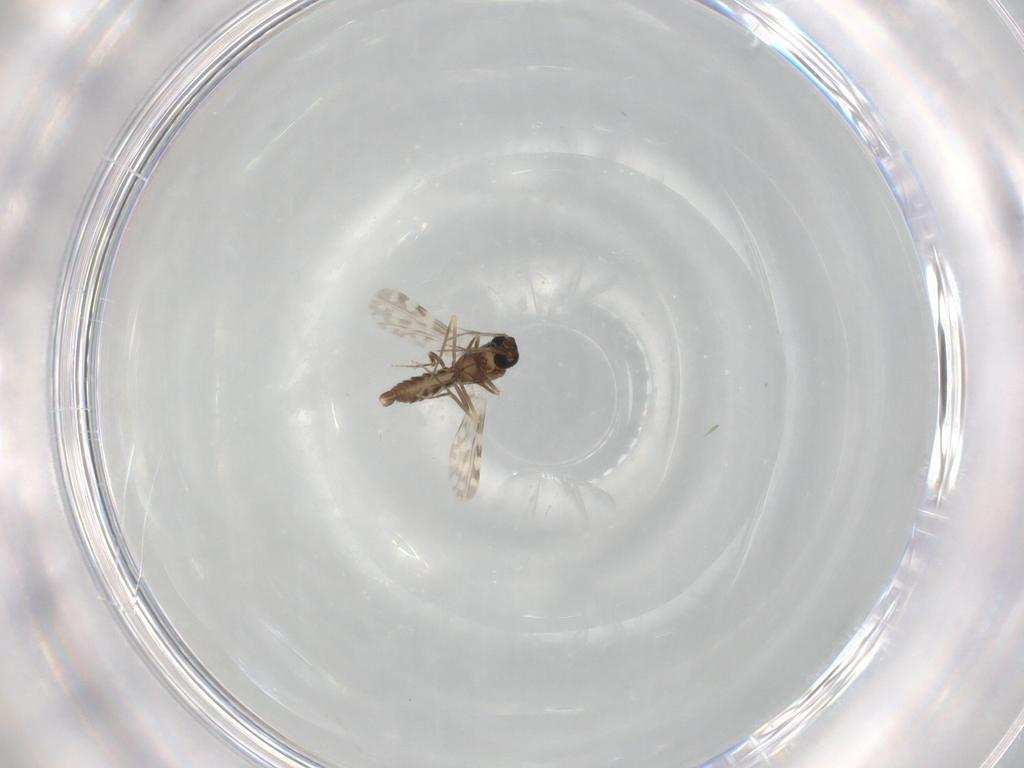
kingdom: Animalia
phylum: Arthropoda
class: Insecta
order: Diptera
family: Ceratopogonidae
